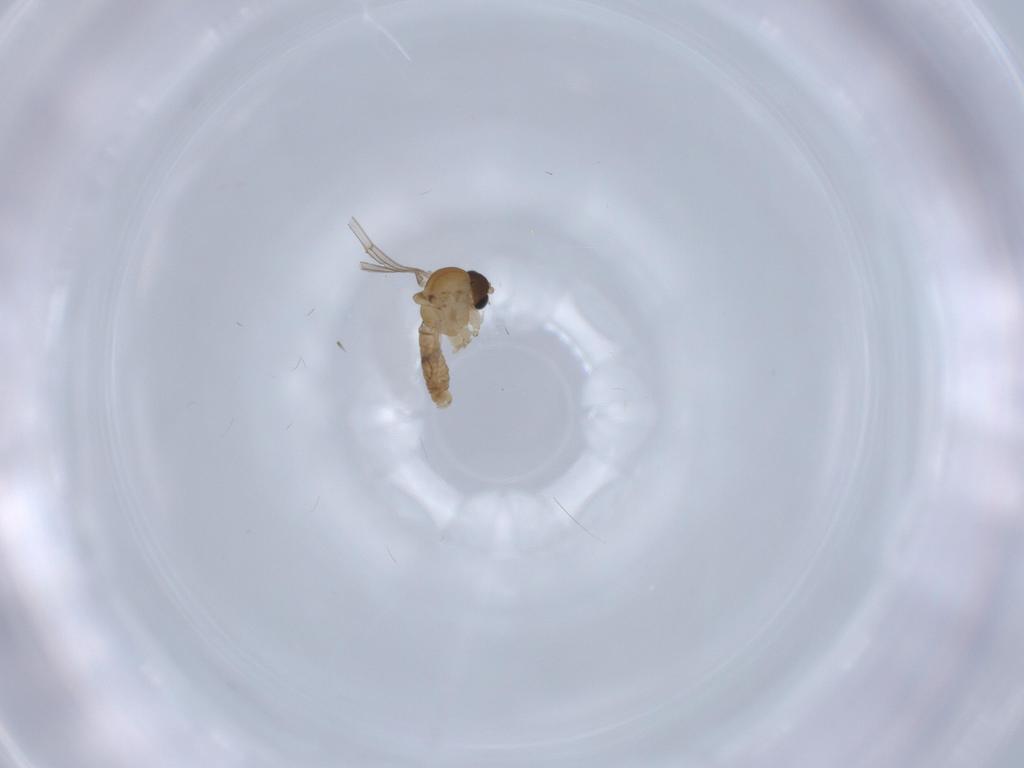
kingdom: Animalia
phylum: Arthropoda
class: Insecta
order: Diptera
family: Psychodidae
